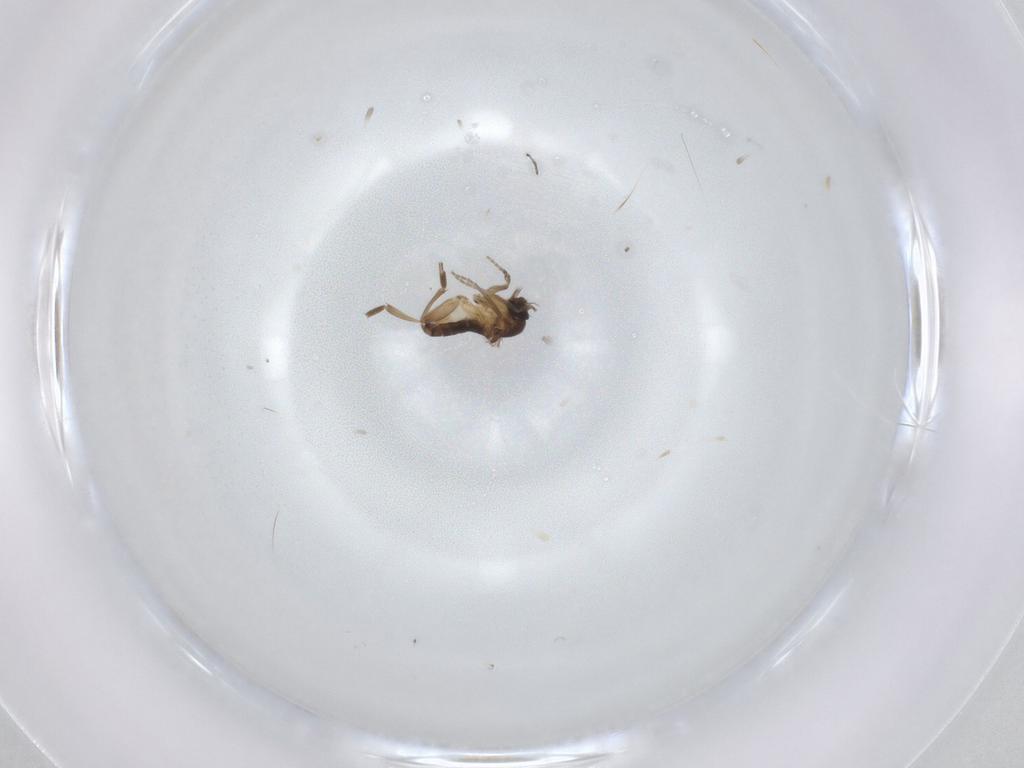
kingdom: Animalia
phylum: Arthropoda
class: Insecta
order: Diptera
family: Phoridae
